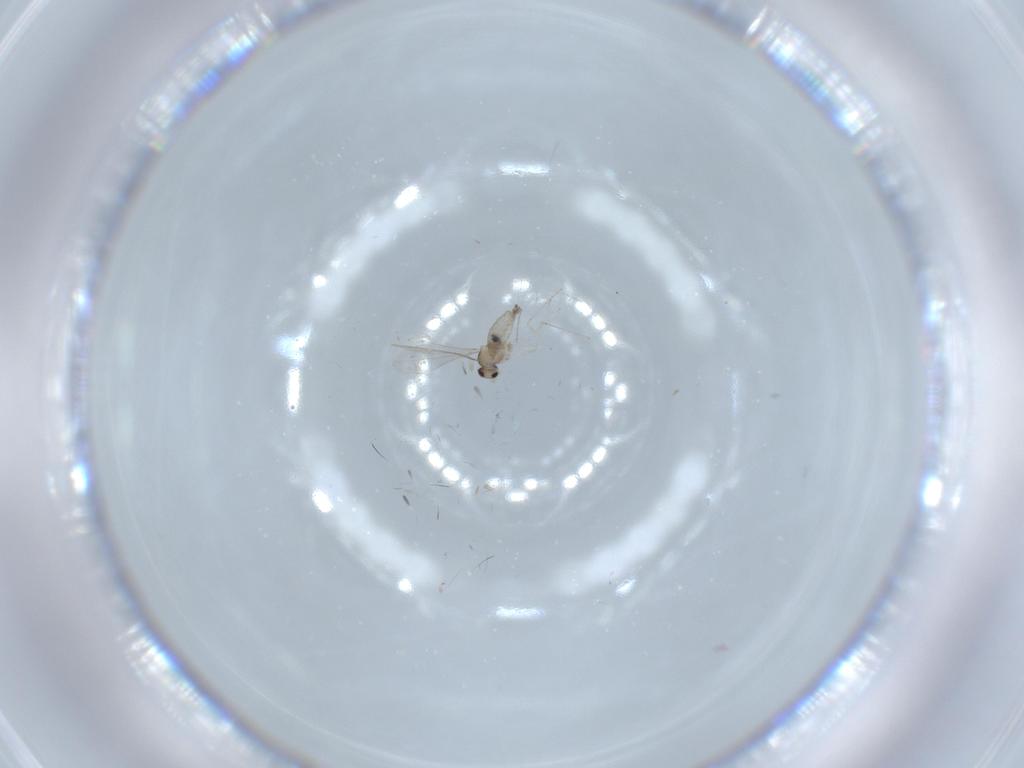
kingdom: Animalia
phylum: Arthropoda
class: Insecta
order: Diptera
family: Cecidomyiidae
